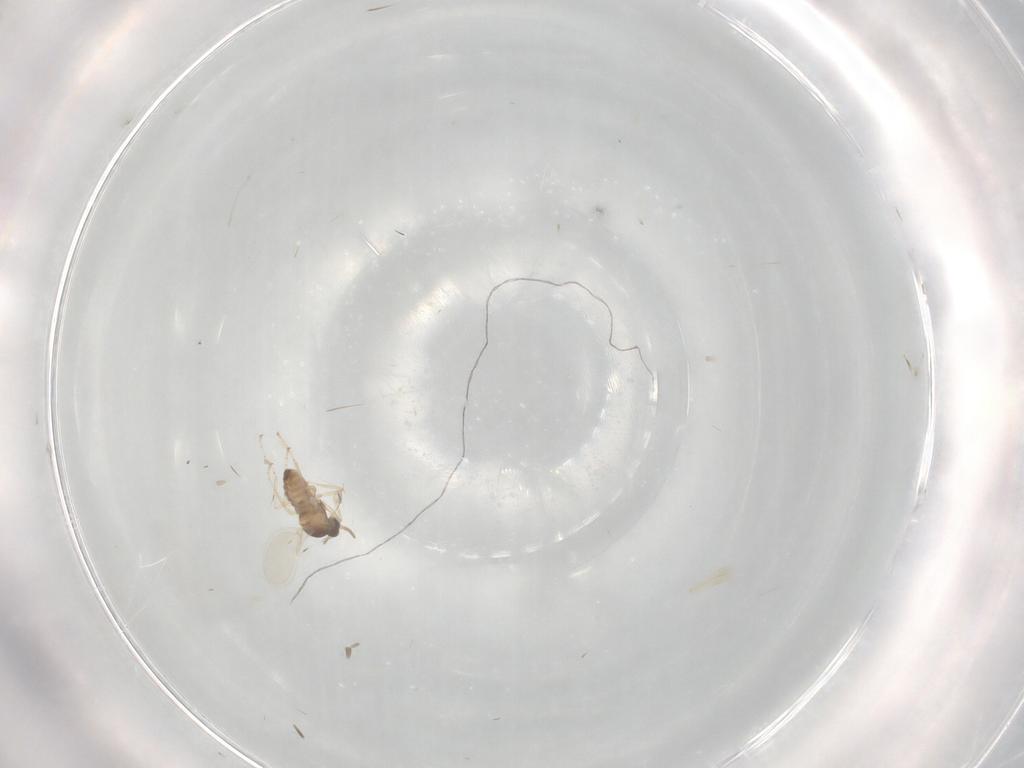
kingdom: Animalia
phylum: Arthropoda
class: Insecta
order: Diptera
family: Cecidomyiidae
